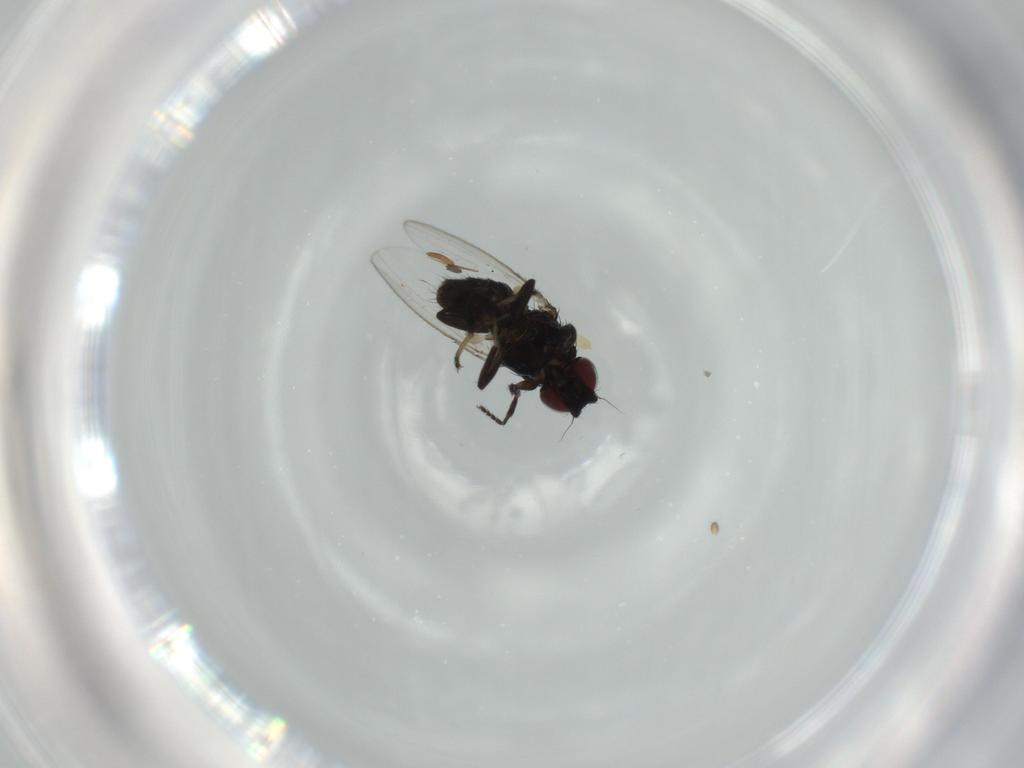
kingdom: Animalia
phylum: Arthropoda
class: Insecta
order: Diptera
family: Milichiidae
